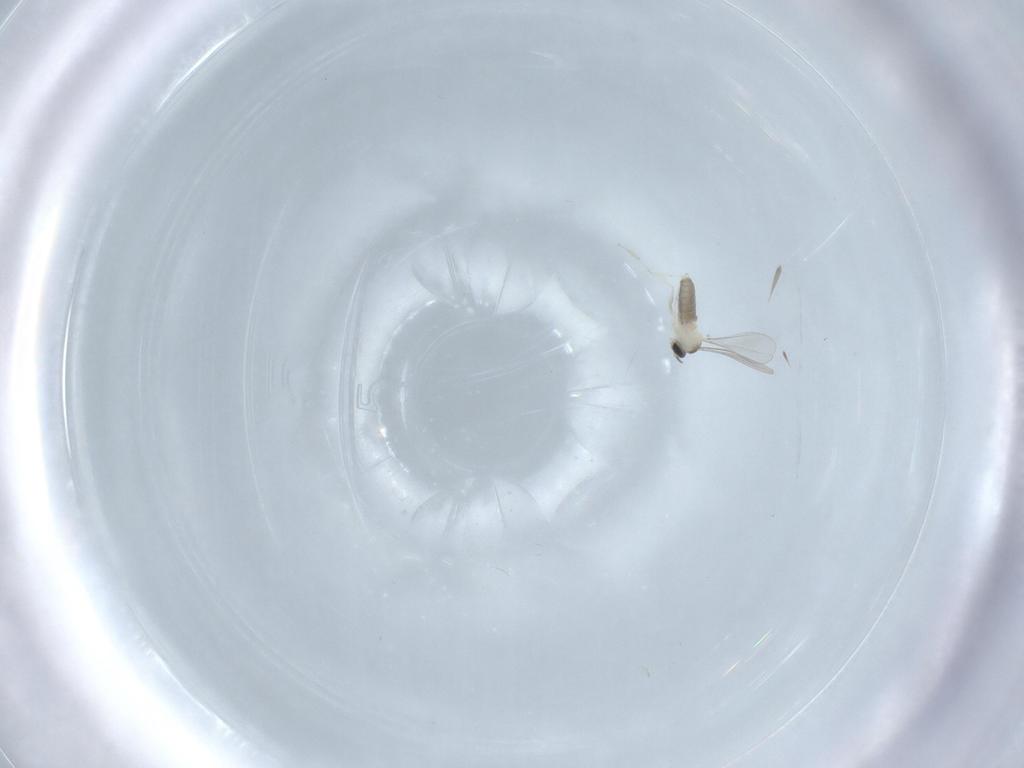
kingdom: Animalia
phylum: Arthropoda
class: Insecta
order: Diptera
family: Cecidomyiidae
